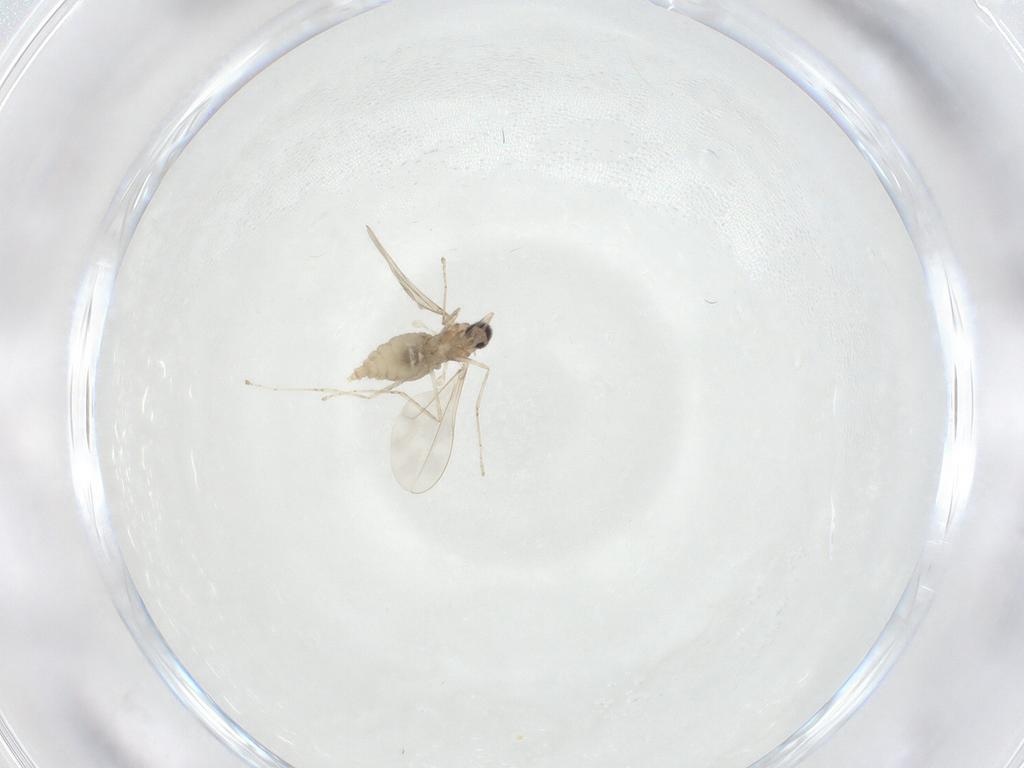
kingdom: Animalia
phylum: Arthropoda
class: Insecta
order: Diptera
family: Cecidomyiidae
